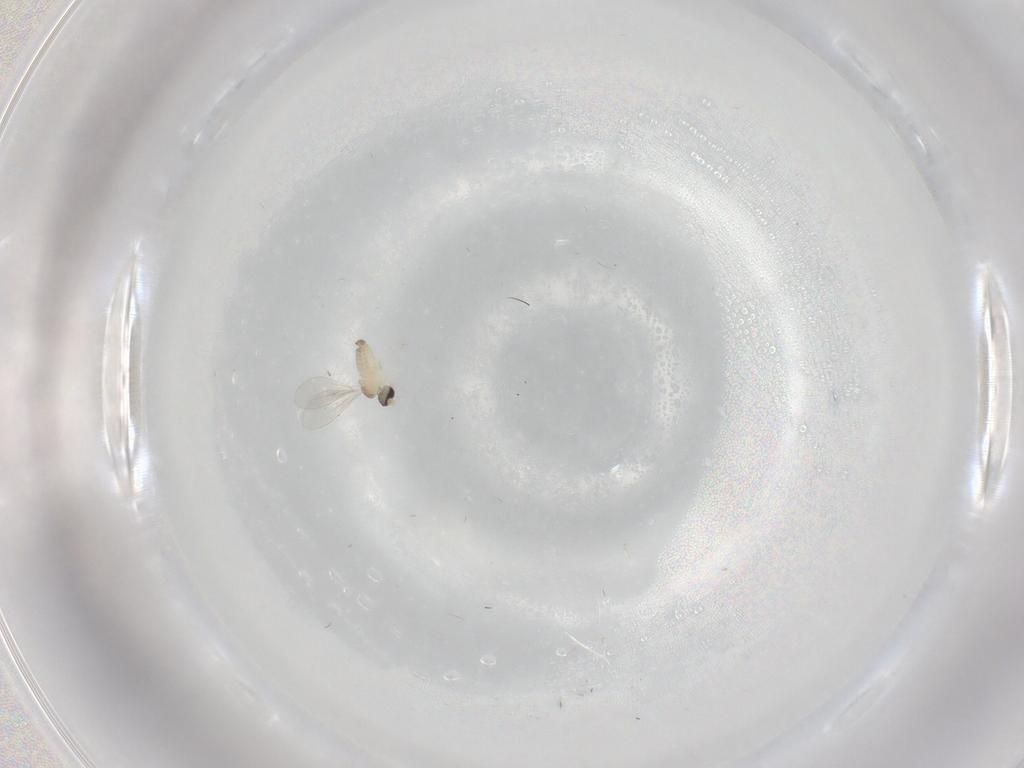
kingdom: Animalia
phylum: Arthropoda
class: Insecta
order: Diptera
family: Cecidomyiidae
